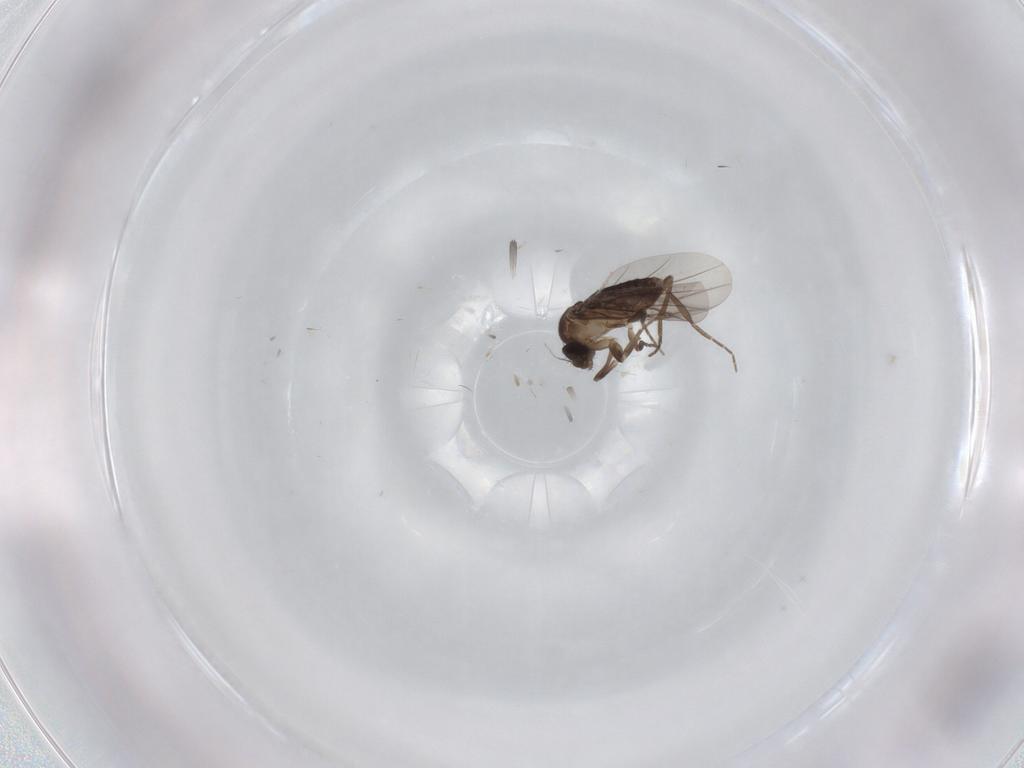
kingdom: Animalia
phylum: Arthropoda
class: Insecta
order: Diptera
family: Phoridae
